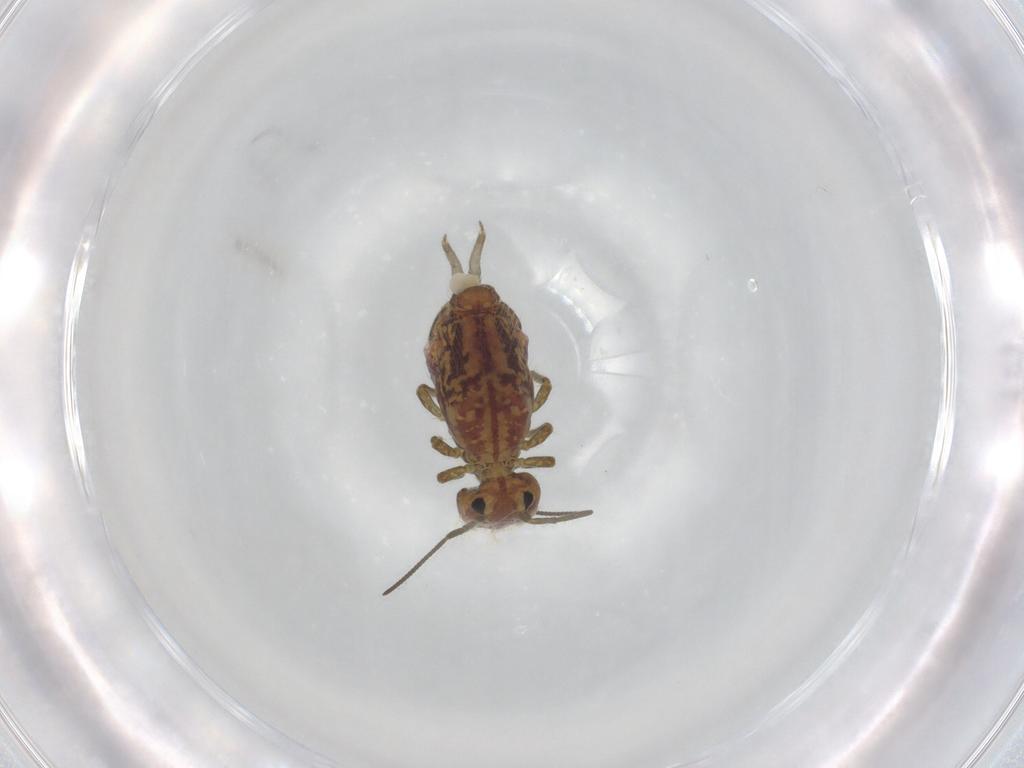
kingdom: Animalia
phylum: Arthropoda
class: Collembola
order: Symphypleona
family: Sminthuridae
